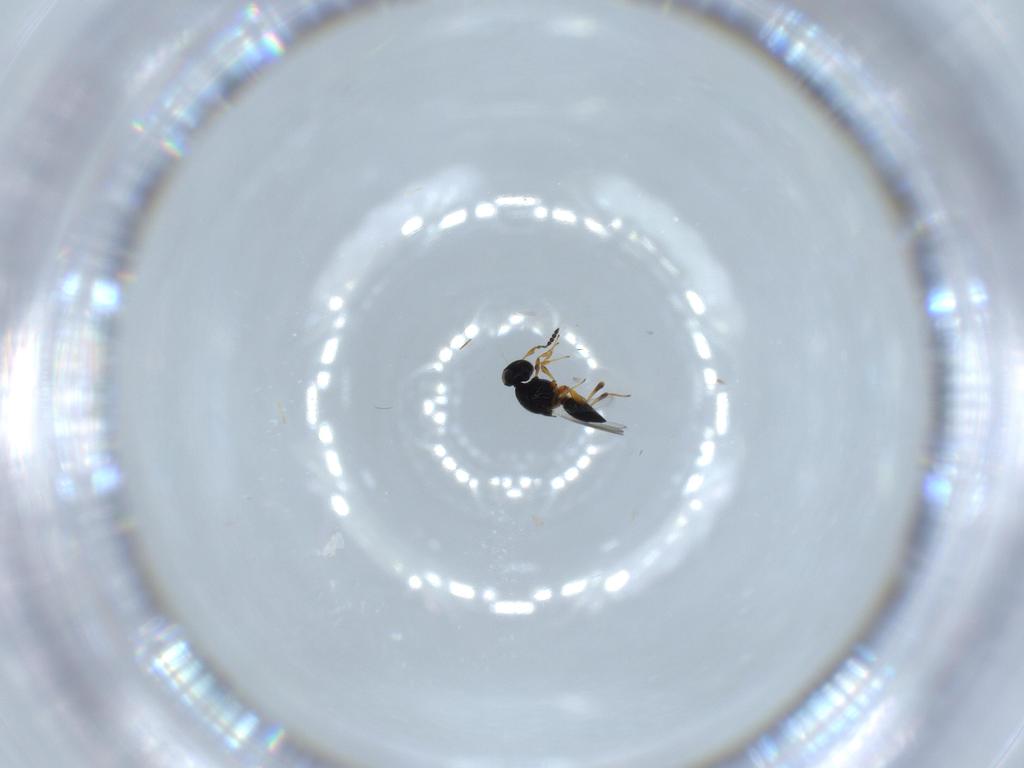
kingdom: Animalia
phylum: Arthropoda
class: Insecta
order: Hymenoptera
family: Platygastridae
